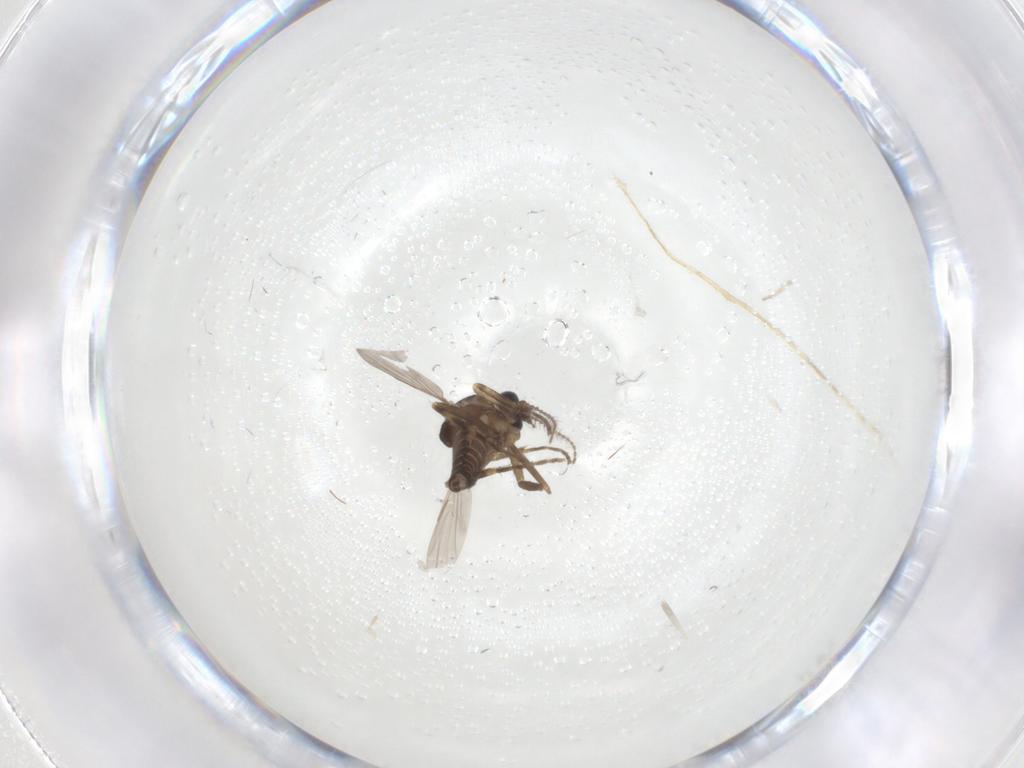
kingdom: Animalia
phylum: Arthropoda
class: Insecta
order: Diptera
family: Ceratopogonidae
